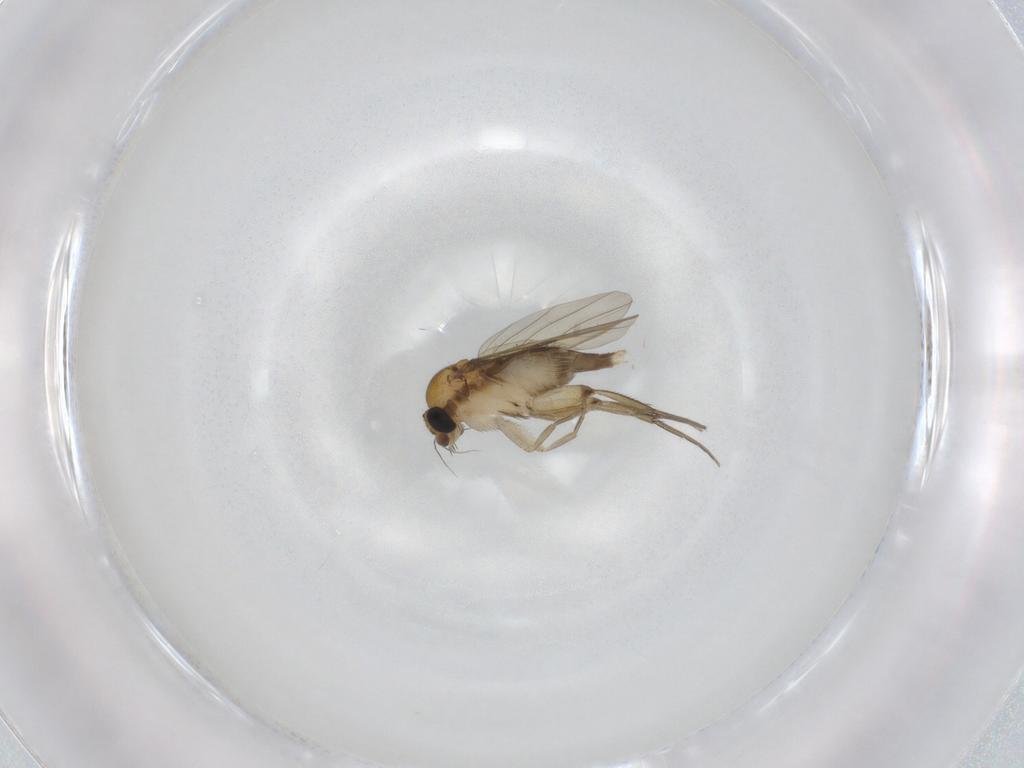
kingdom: Animalia
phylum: Arthropoda
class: Insecta
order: Diptera
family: Phoridae
